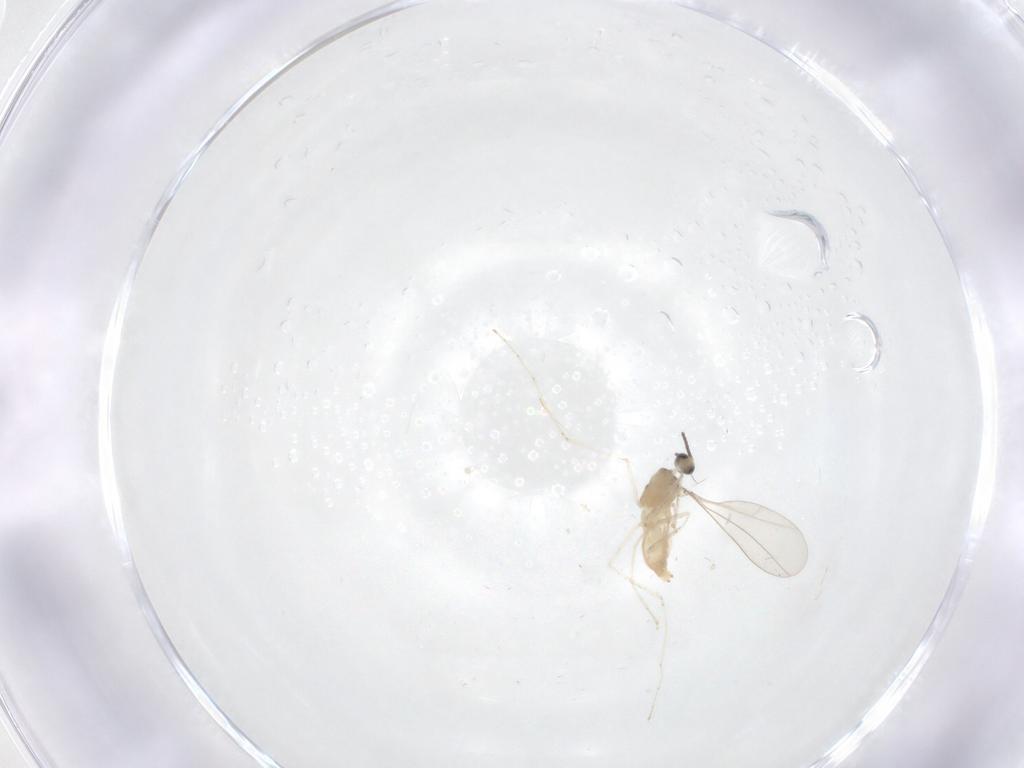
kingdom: Animalia
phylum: Arthropoda
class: Insecta
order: Diptera
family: Cecidomyiidae
